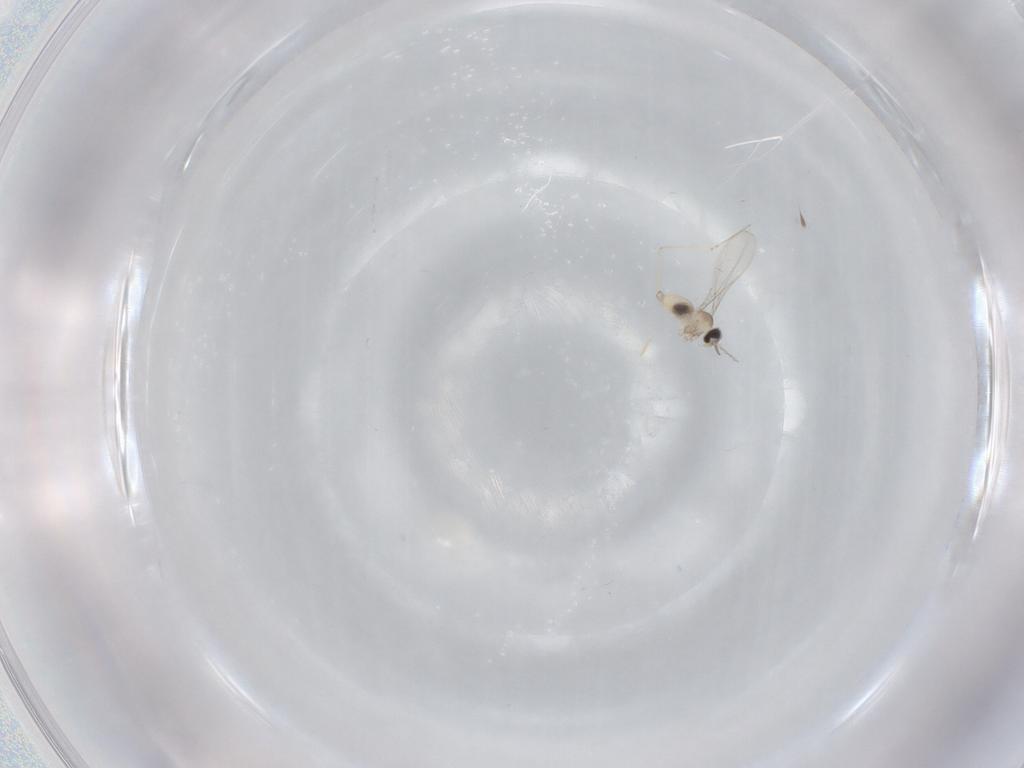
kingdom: Animalia
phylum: Arthropoda
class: Insecta
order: Diptera
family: Cecidomyiidae
